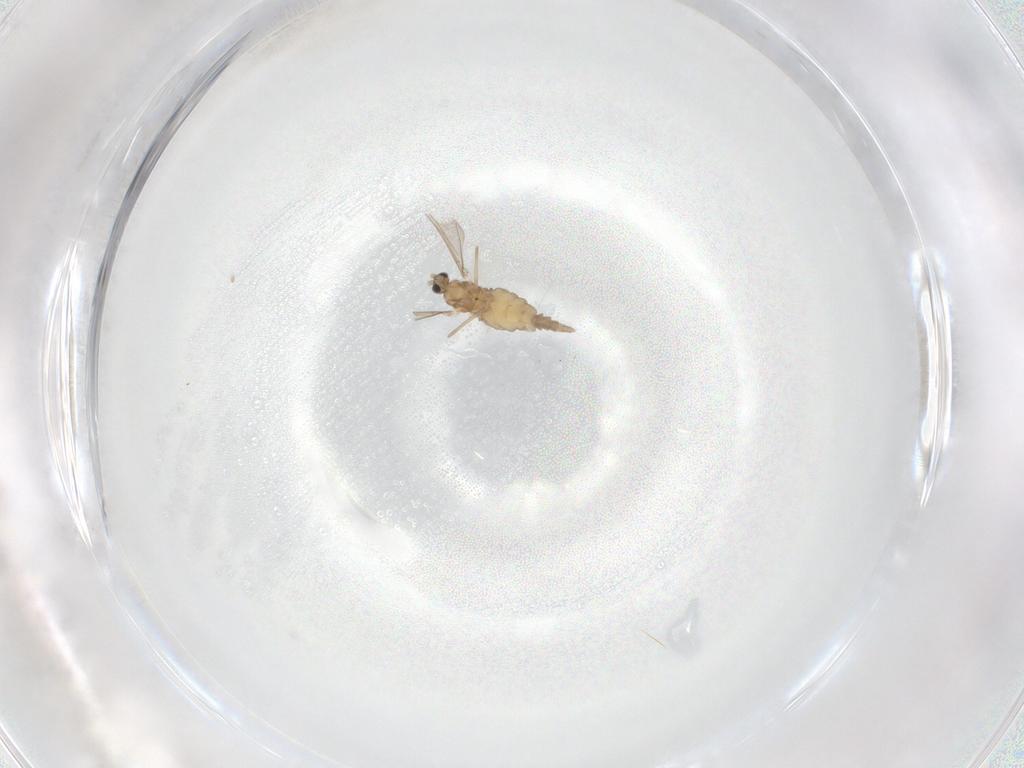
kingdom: Animalia
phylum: Arthropoda
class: Insecta
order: Diptera
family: Cecidomyiidae
